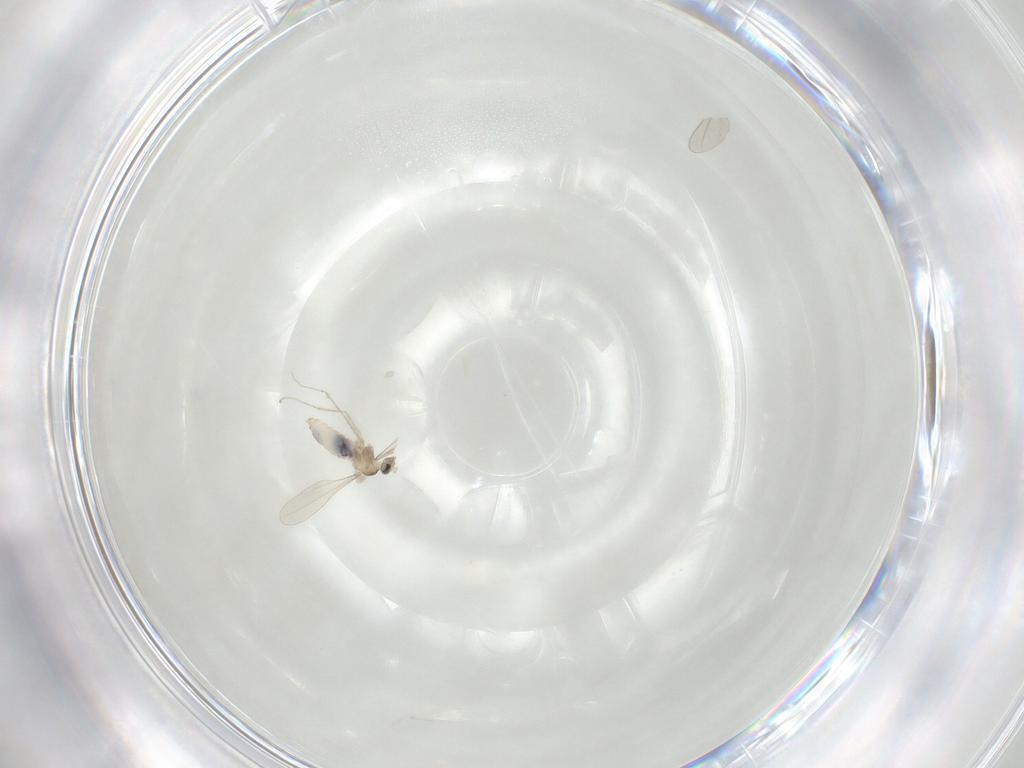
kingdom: Animalia
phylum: Arthropoda
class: Insecta
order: Diptera
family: Cecidomyiidae
